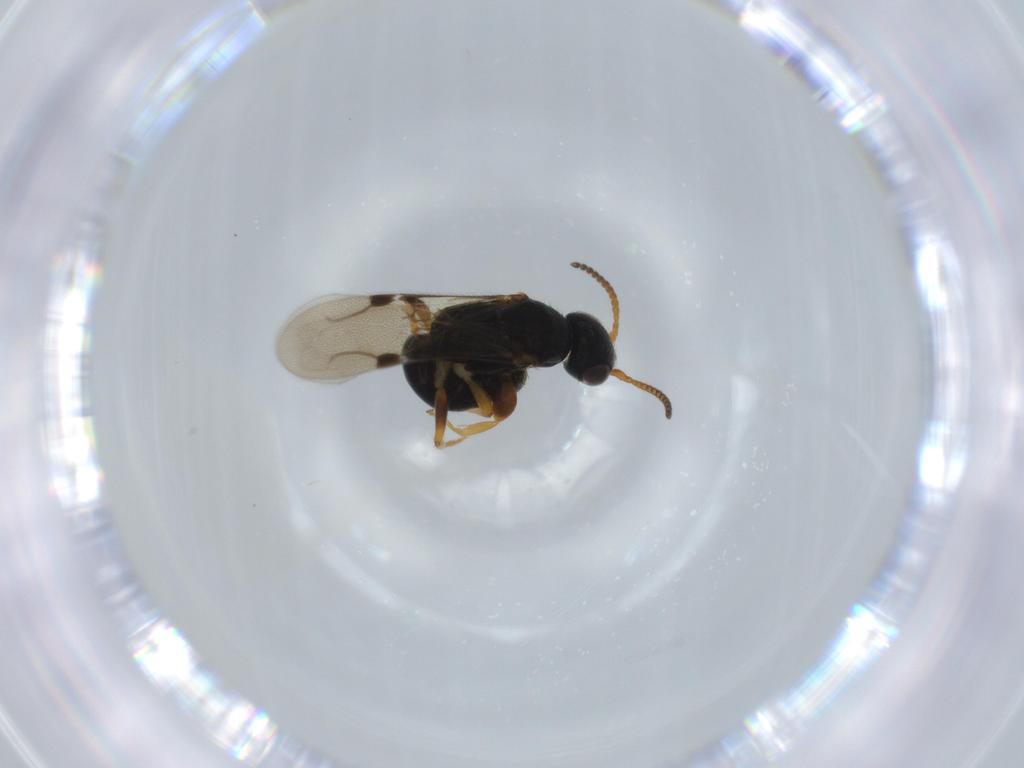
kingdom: Animalia
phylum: Arthropoda
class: Insecta
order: Hymenoptera
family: Bethylidae
